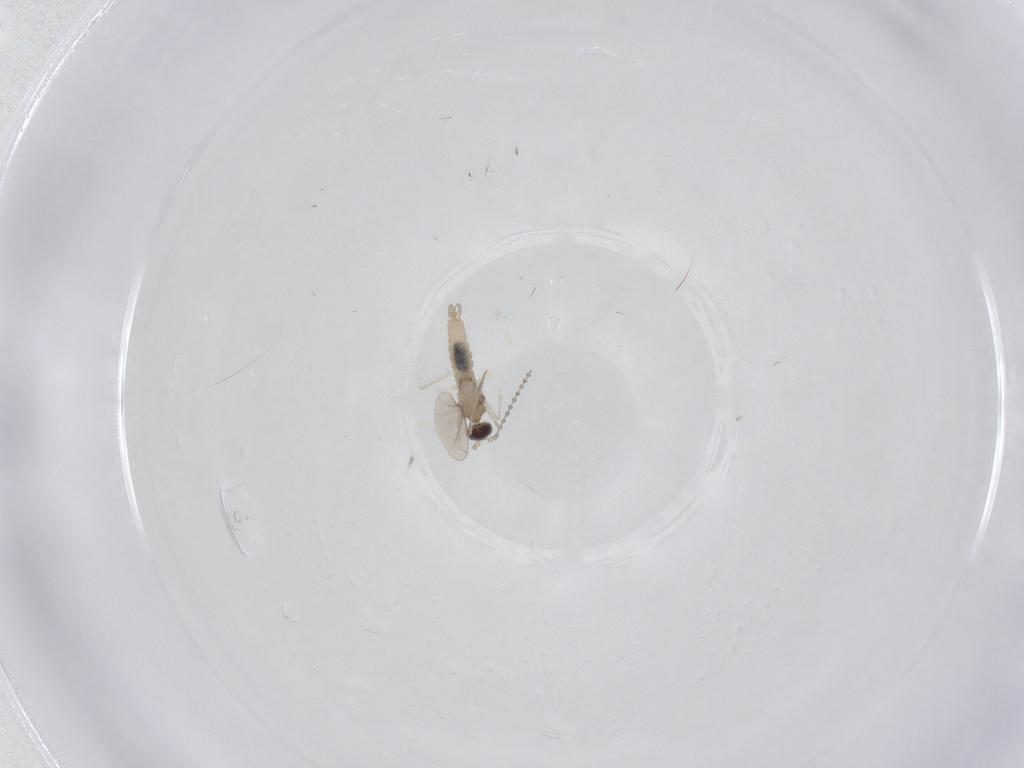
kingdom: Animalia
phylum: Arthropoda
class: Insecta
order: Diptera
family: Cecidomyiidae
